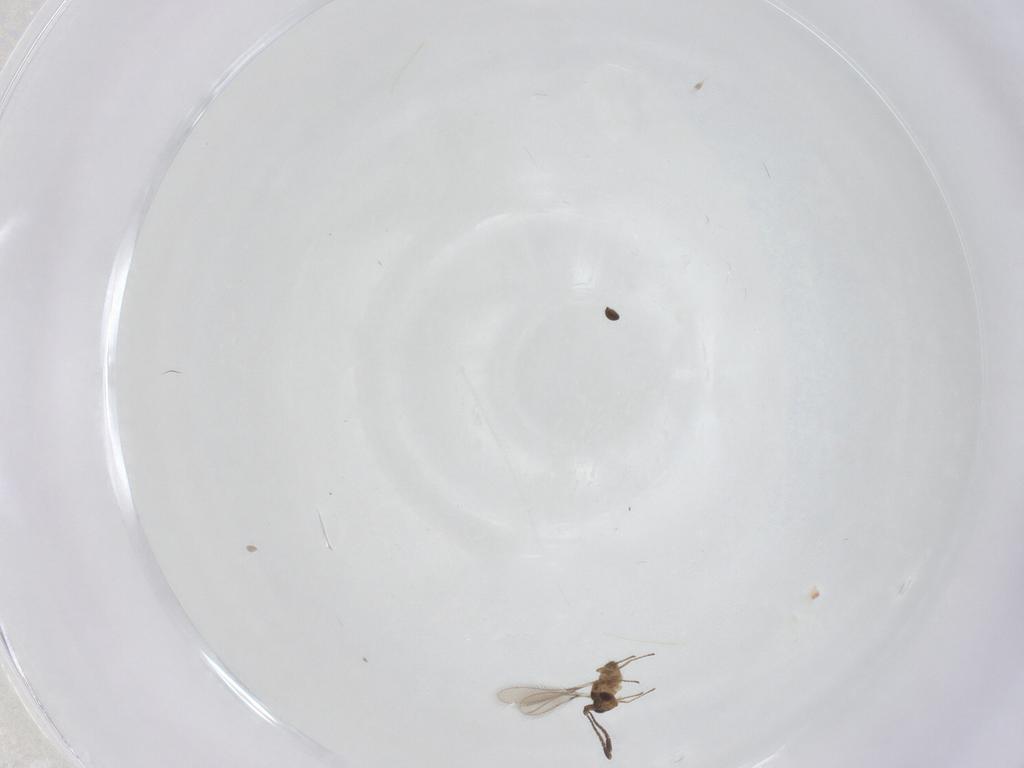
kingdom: Animalia
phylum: Arthropoda
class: Insecta
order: Diptera
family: Phoridae
